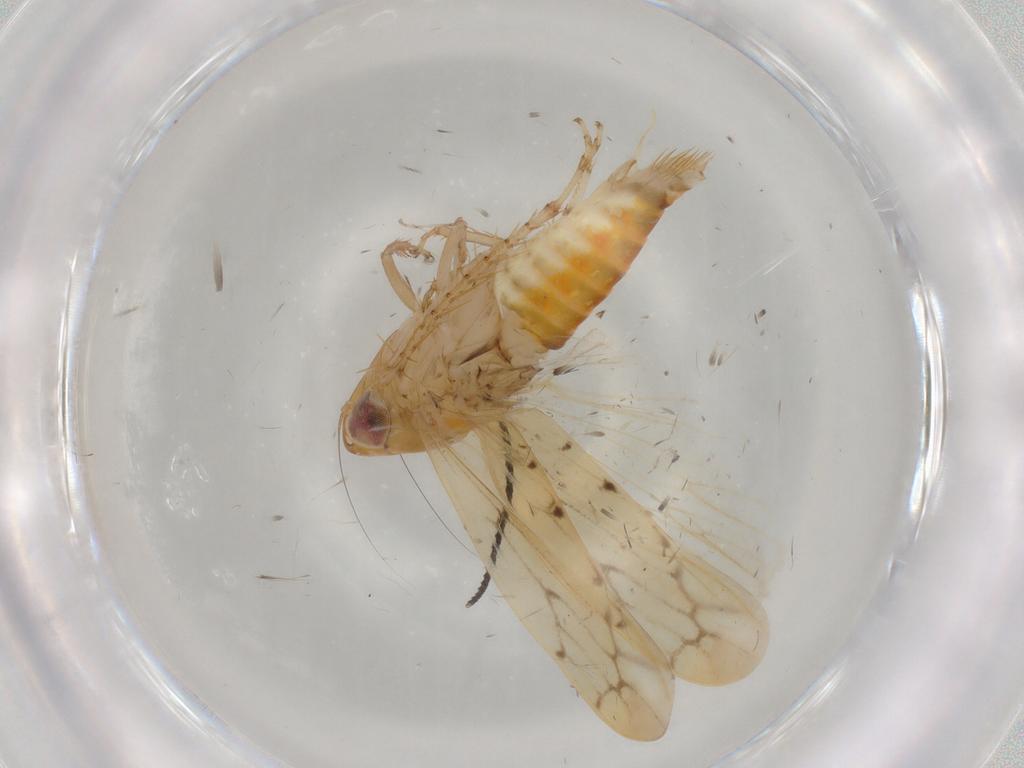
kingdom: Animalia
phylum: Arthropoda
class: Insecta
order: Hemiptera
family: Cicadellidae
